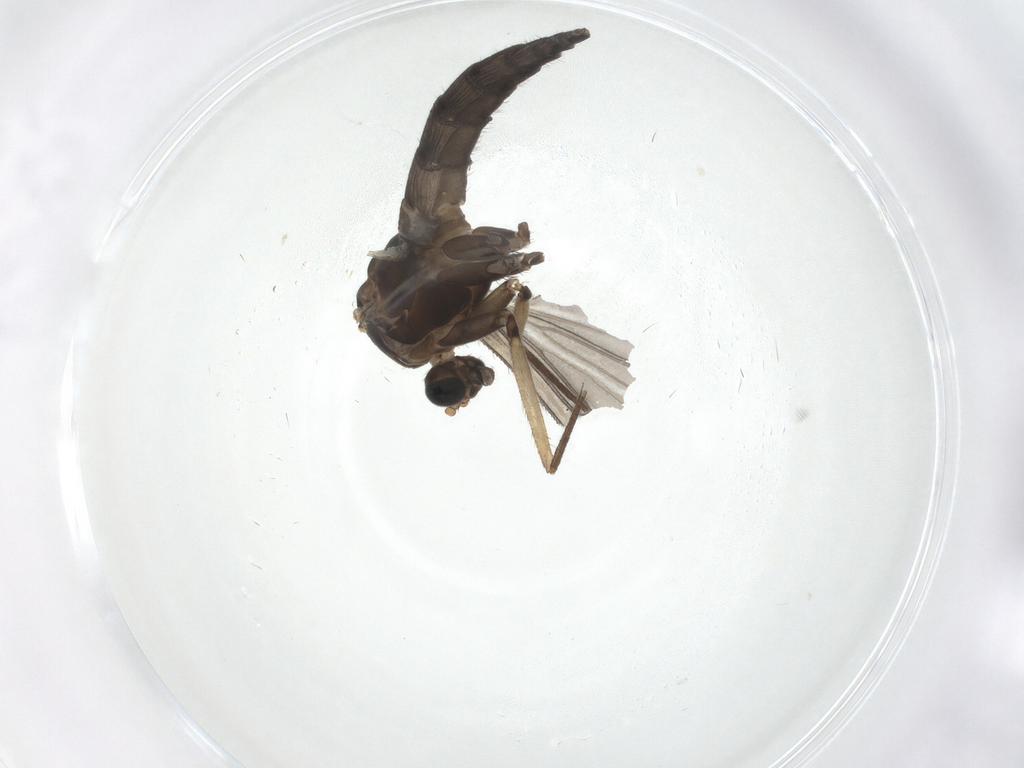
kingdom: Animalia
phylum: Arthropoda
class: Insecta
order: Diptera
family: Sciaridae
